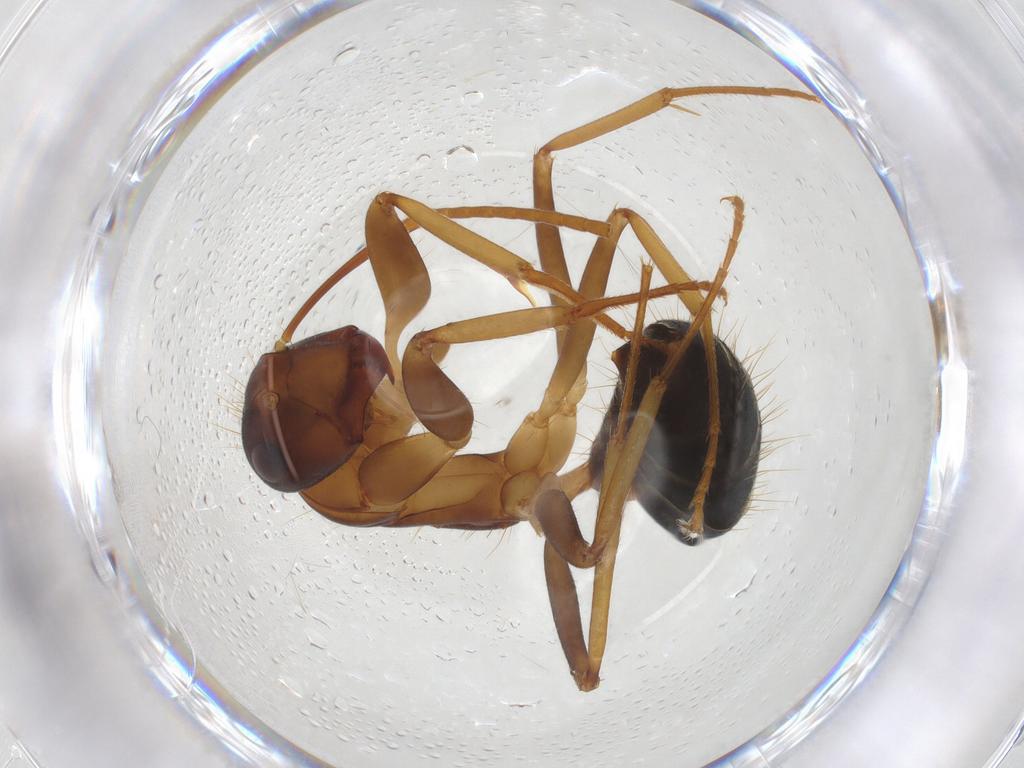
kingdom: Animalia
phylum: Arthropoda
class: Insecta
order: Hymenoptera
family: Formicidae
